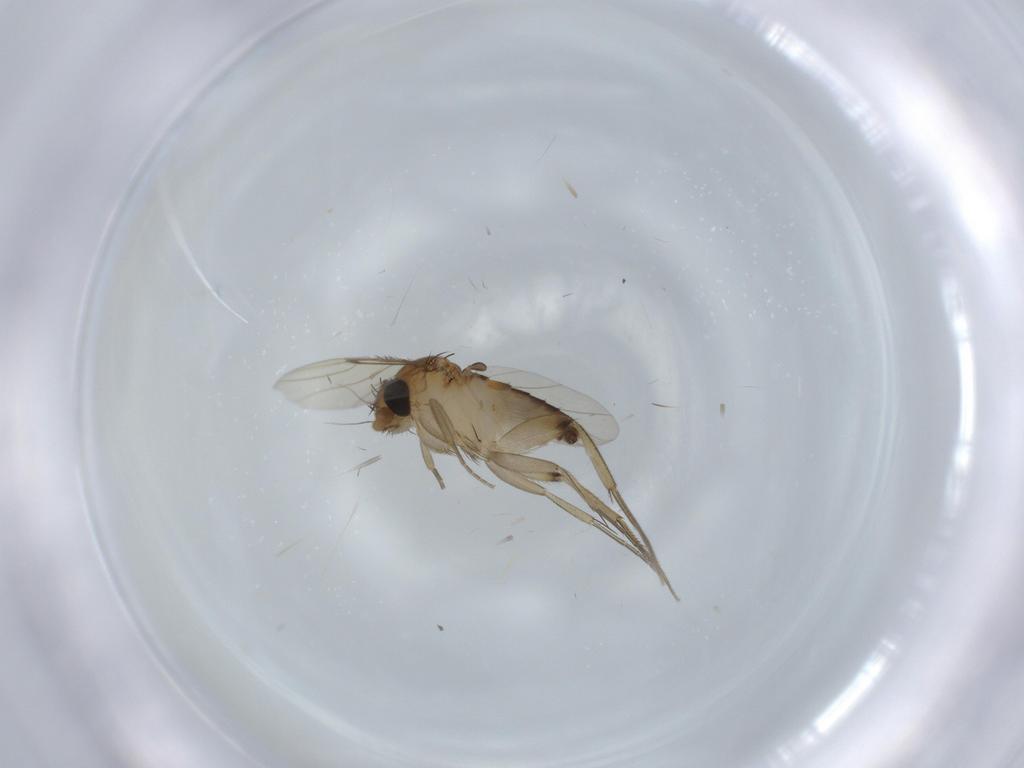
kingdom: Animalia
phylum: Arthropoda
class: Insecta
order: Diptera
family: Phoridae
